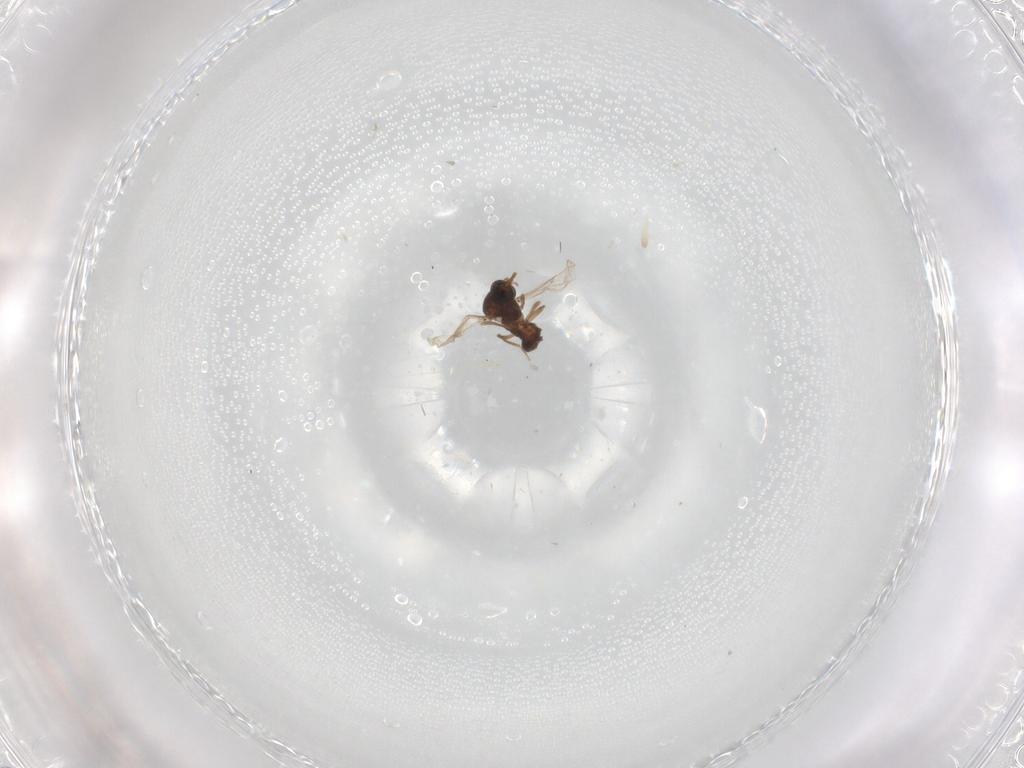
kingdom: Animalia
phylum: Arthropoda
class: Insecta
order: Diptera
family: Ceratopogonidae
